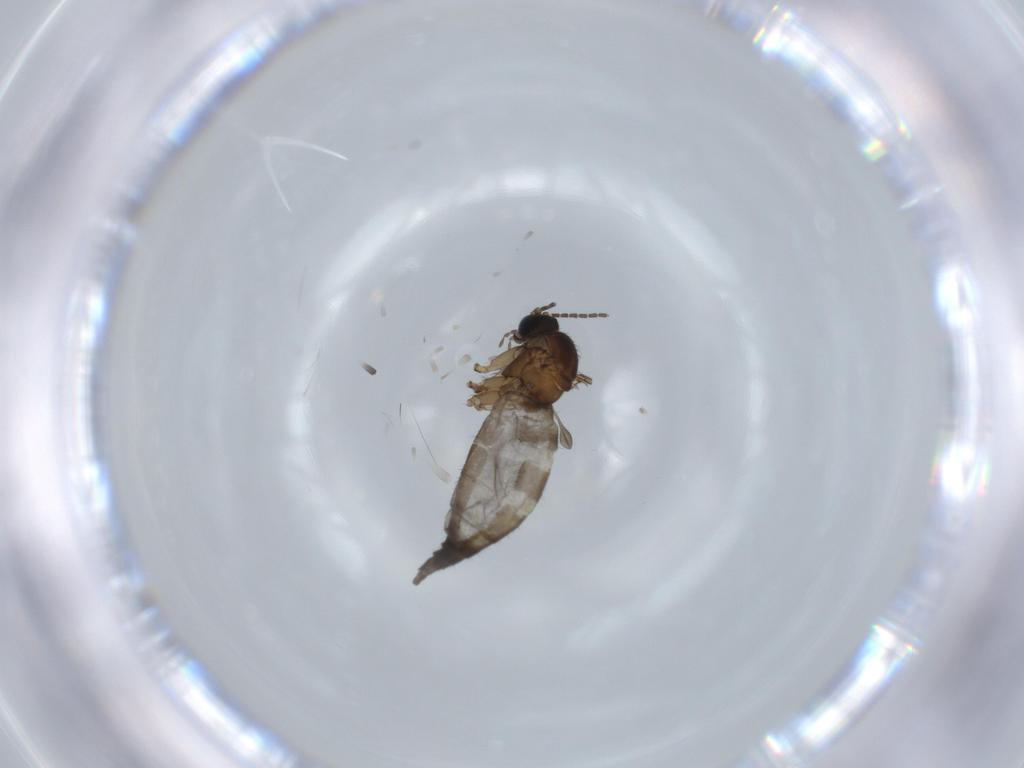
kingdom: Animalia
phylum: Arthropoda
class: Insecta
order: Diptera
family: Sciaridae
